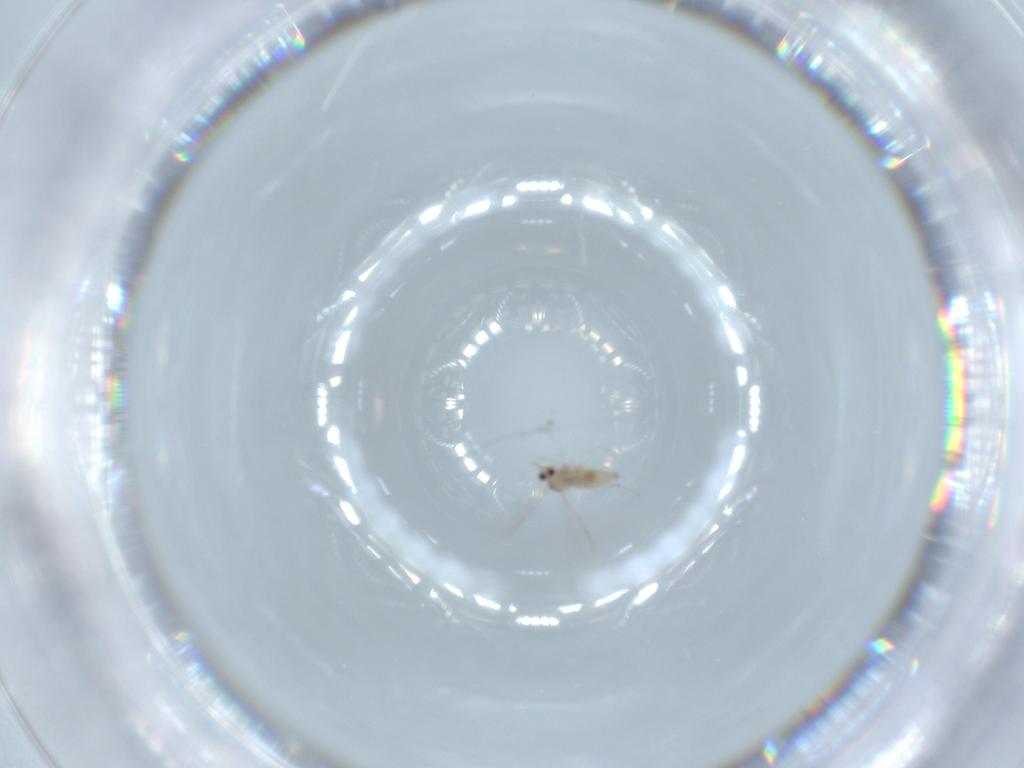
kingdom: Animalia
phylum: Arthropoda
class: Insecta
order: Diptera
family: Cecidomyiidae
